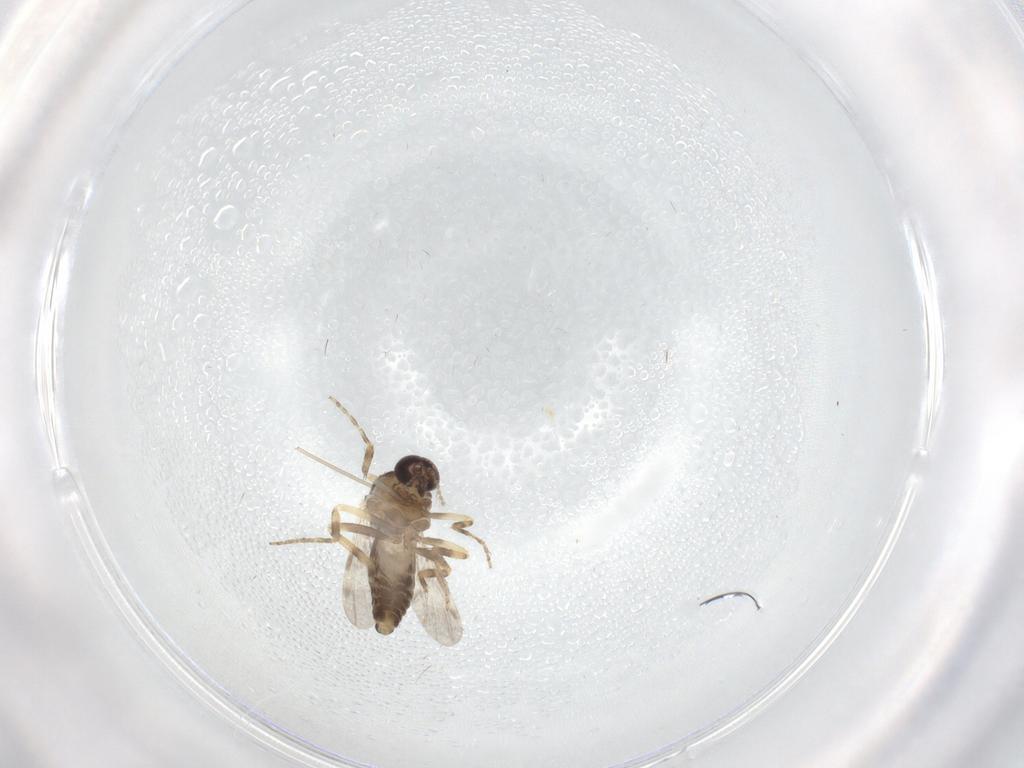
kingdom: Animalia
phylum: Arthropoda
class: Insecta
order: Diptera
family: Ceratopogonidae
